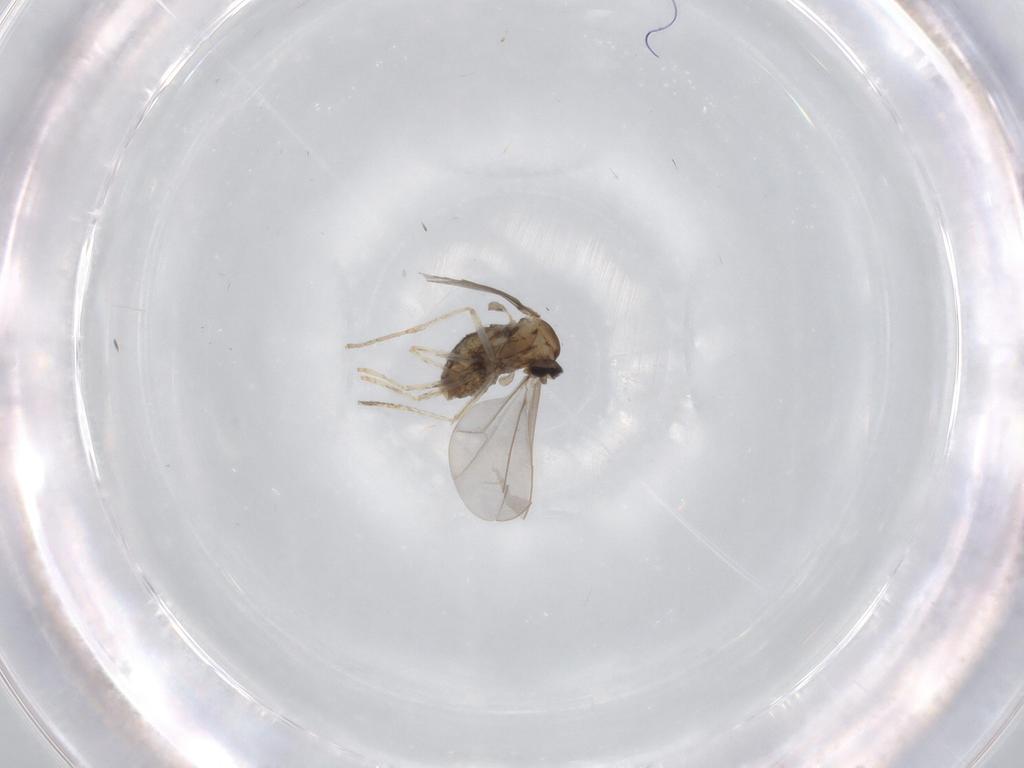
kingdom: Animalia
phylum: Arthropoda
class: Insecta
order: Diptera
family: Cecidomyiidae
